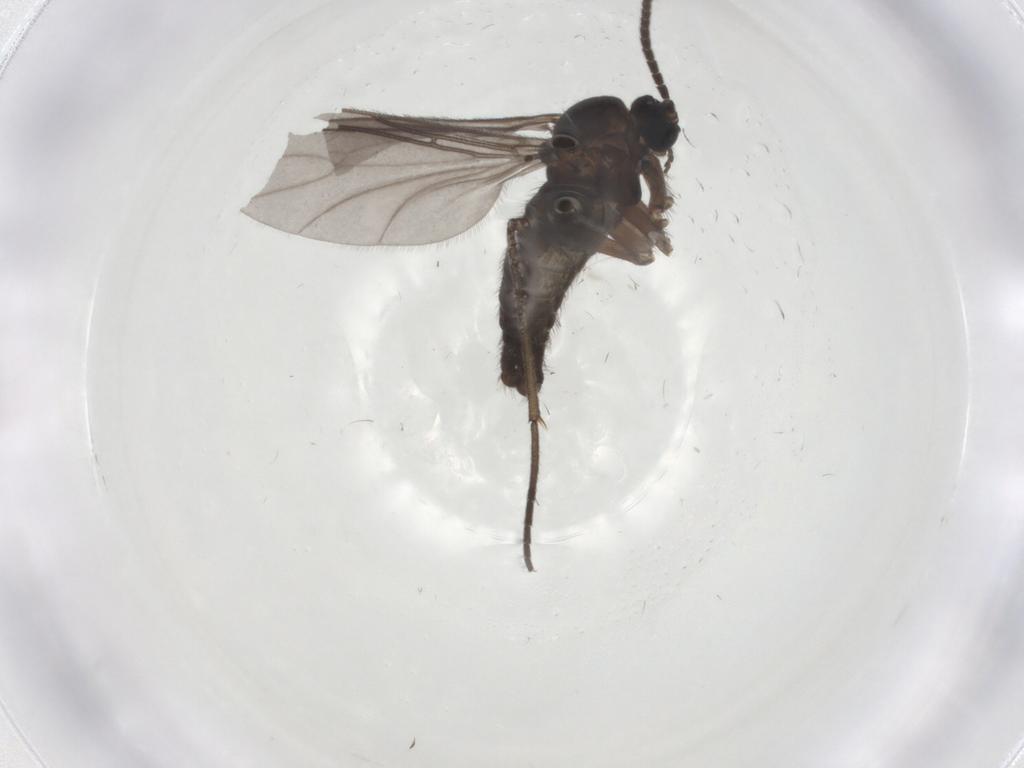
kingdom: Animalia
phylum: Arthropoda
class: Insecta
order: Diptera
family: Sciaridae
